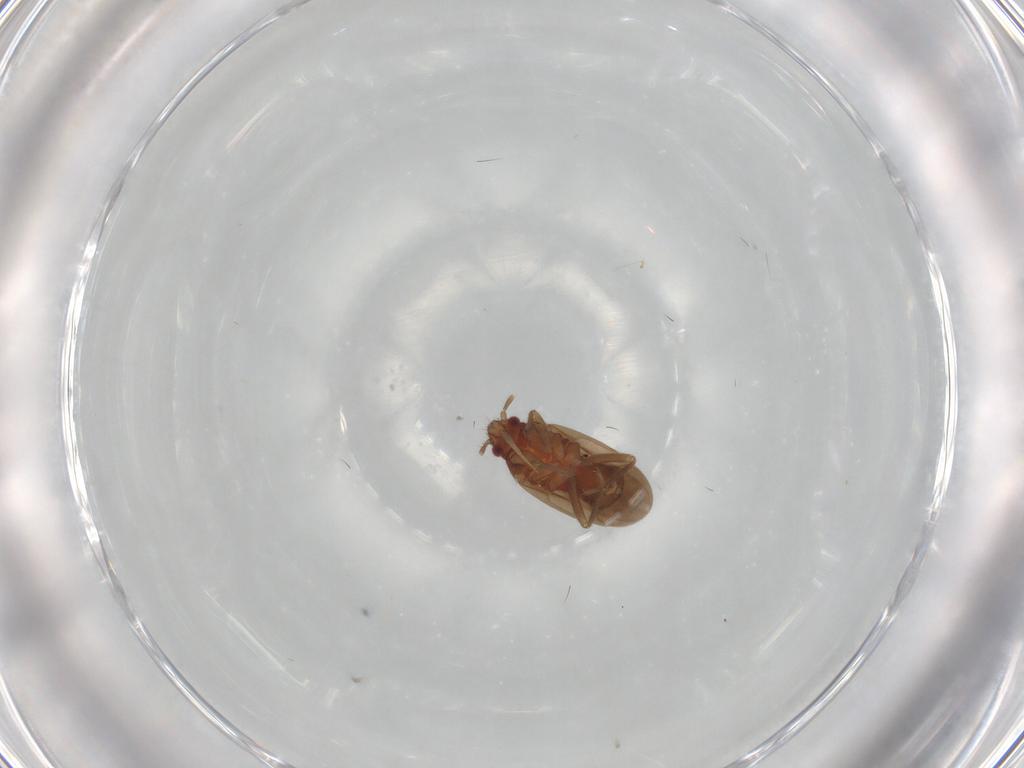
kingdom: Animalia
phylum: Arthropoda
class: Insecta
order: Hemiptera
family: Ceratocombidae
